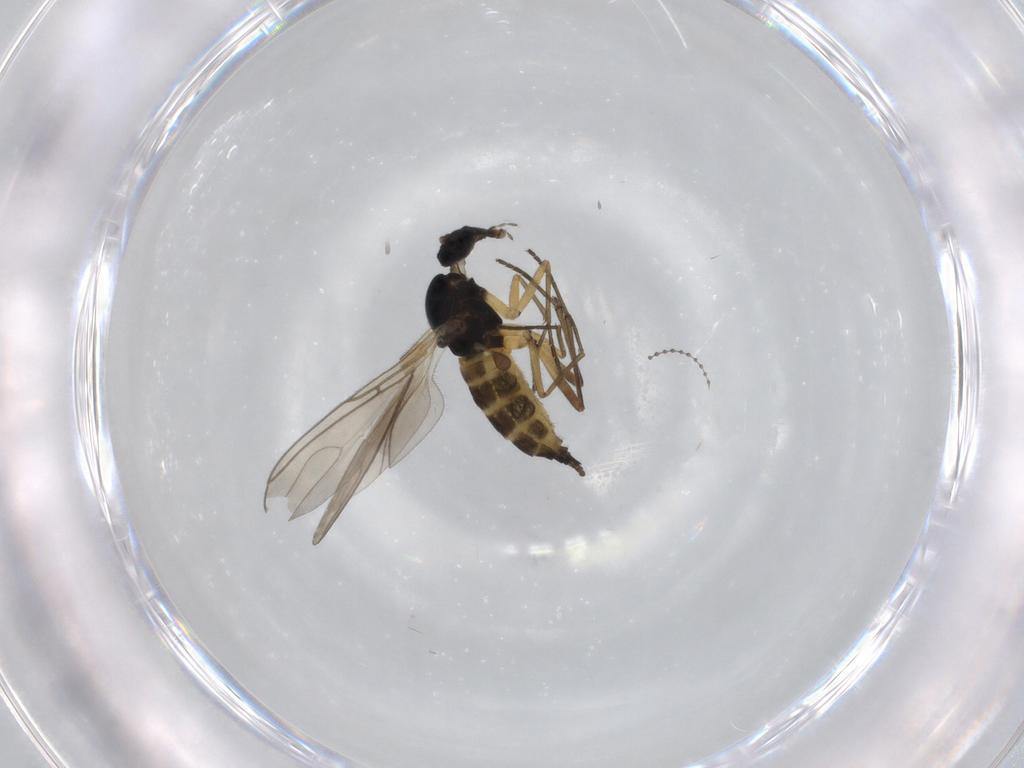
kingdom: Animalia
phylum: Arthropoda
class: Insecta
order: Diptera
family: Sciaridae
